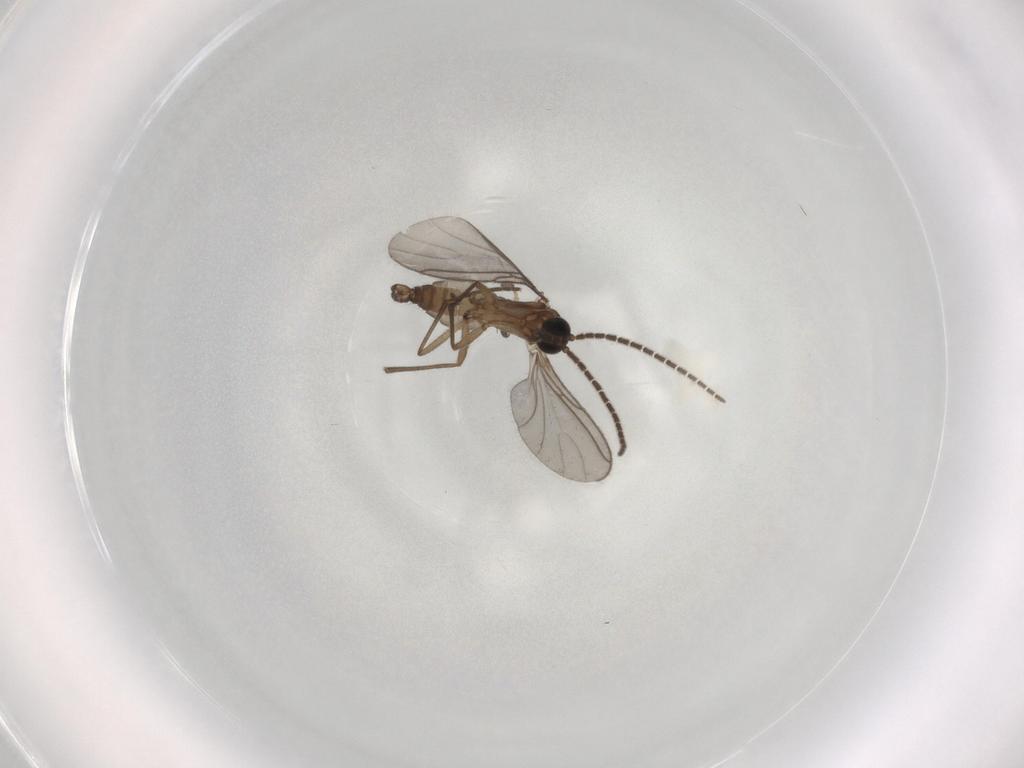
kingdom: Animalia
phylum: Arthropoda
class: Insecta
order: Diptera
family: Sciaridae
